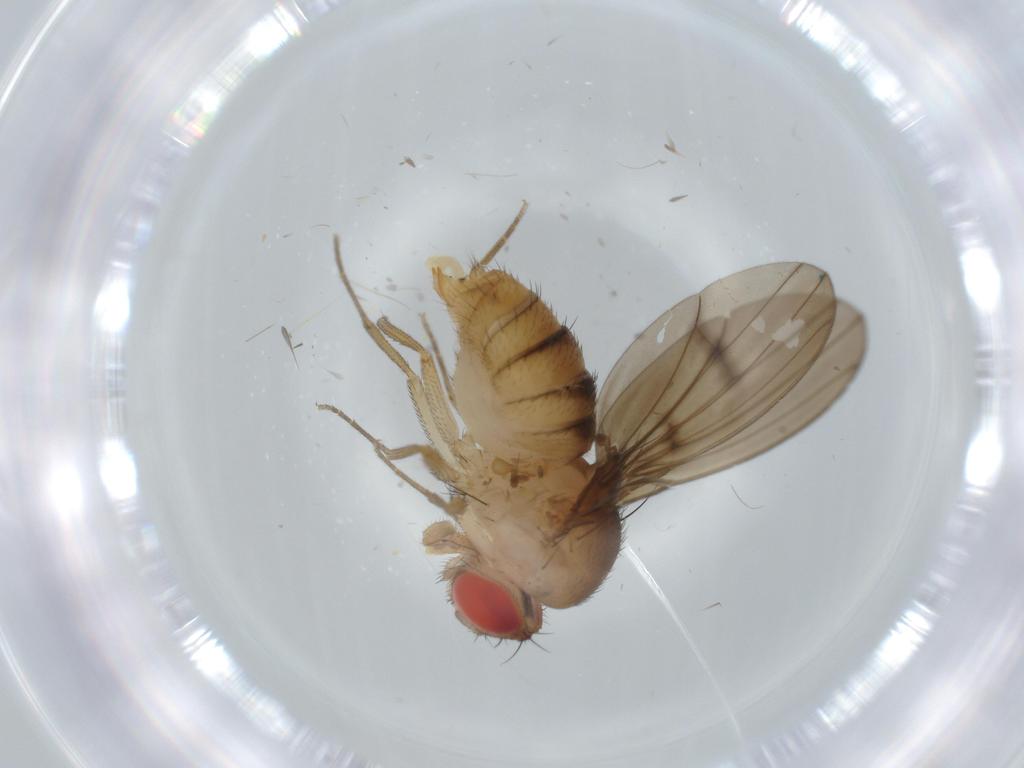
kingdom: Animalia
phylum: Arthropoda
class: Insecta
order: Diptera
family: Drosophilidae
